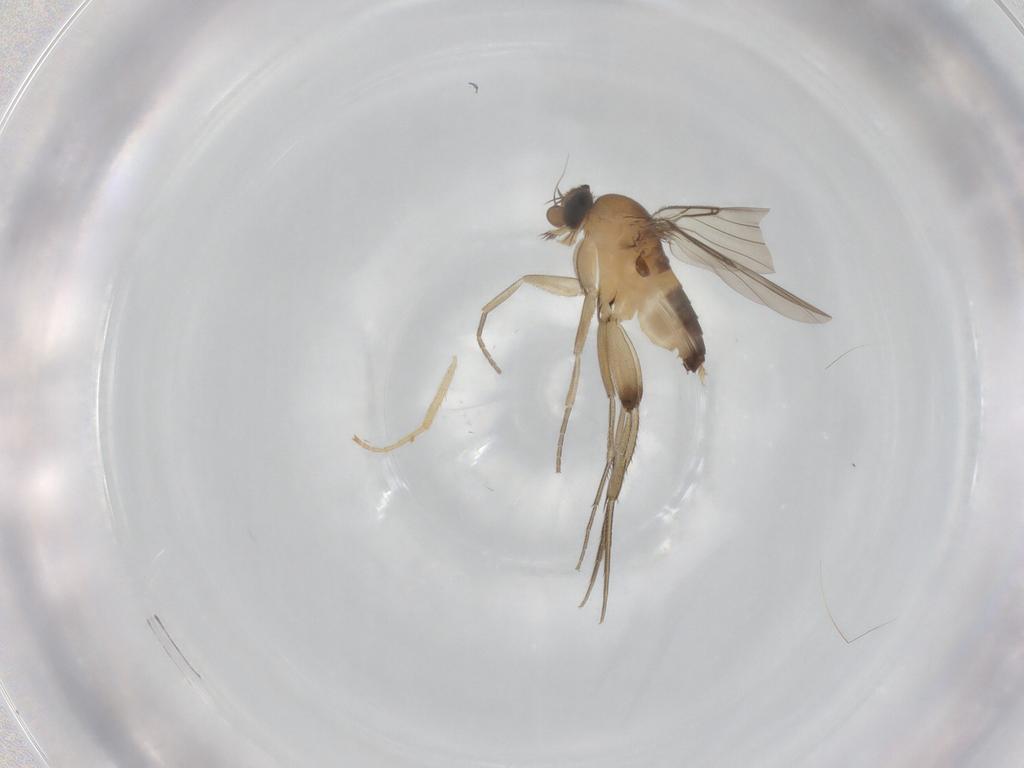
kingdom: Animalia
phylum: Arthropoda
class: Insecta
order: Diptera
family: Phoridae
